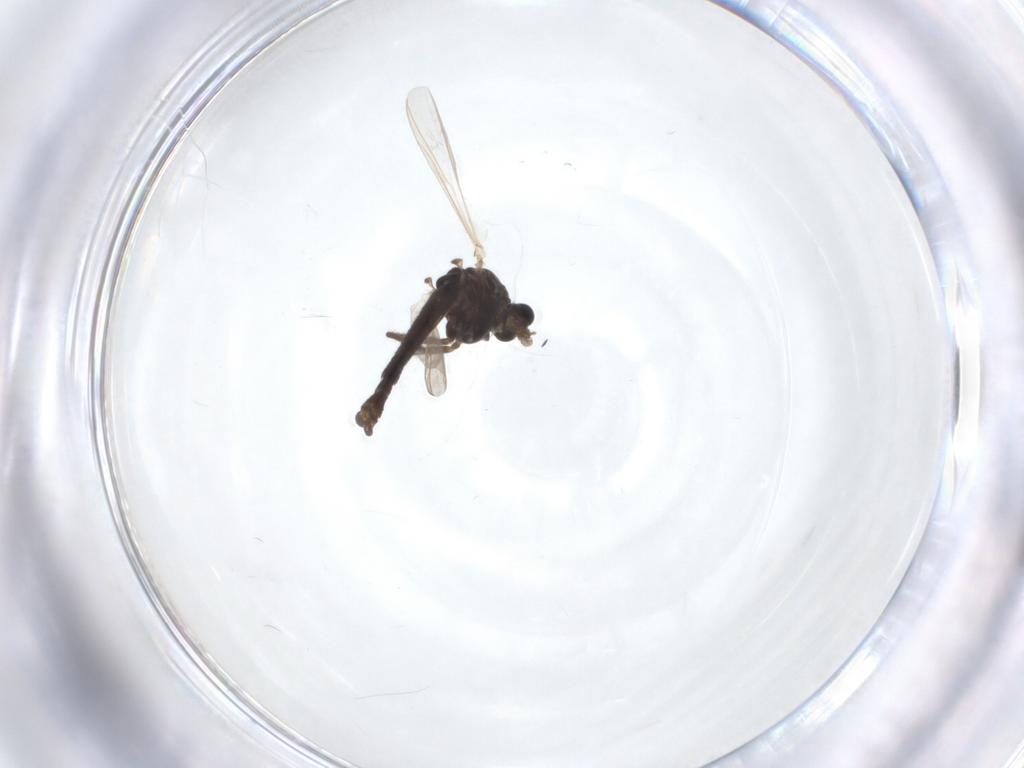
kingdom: Animalia
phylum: Arthropoda
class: Insecta
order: Diptera
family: Chironomidae
